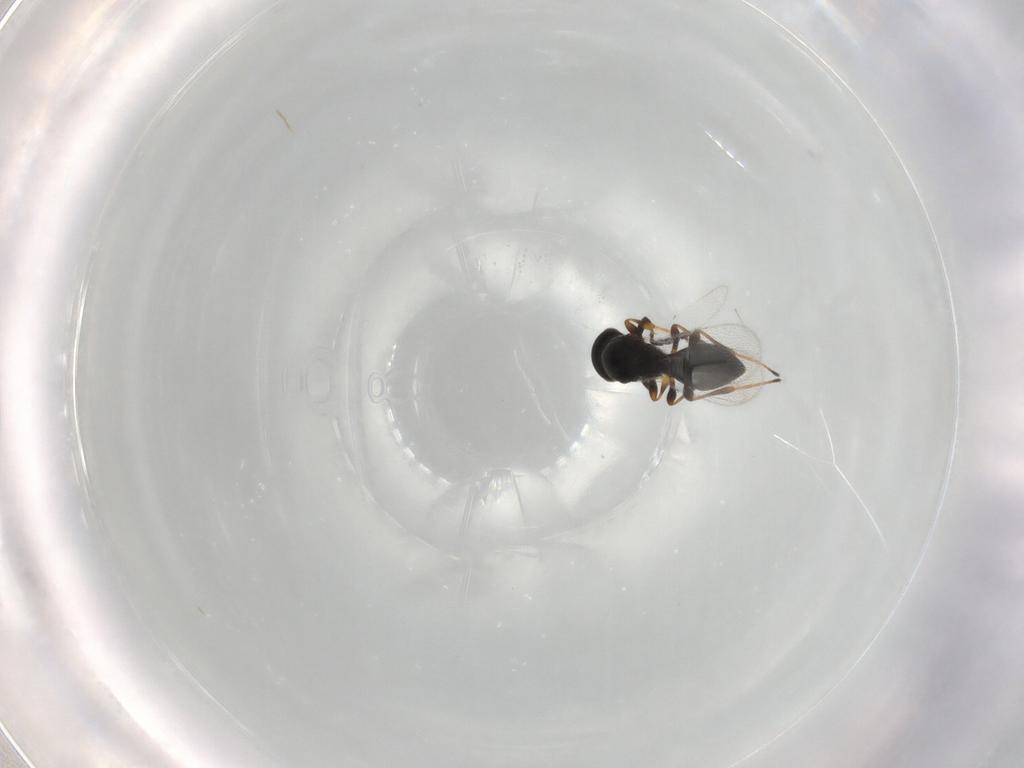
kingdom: Animalia
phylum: Arthropoda
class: Insecta
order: Hymenoptera
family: Platygastridae
